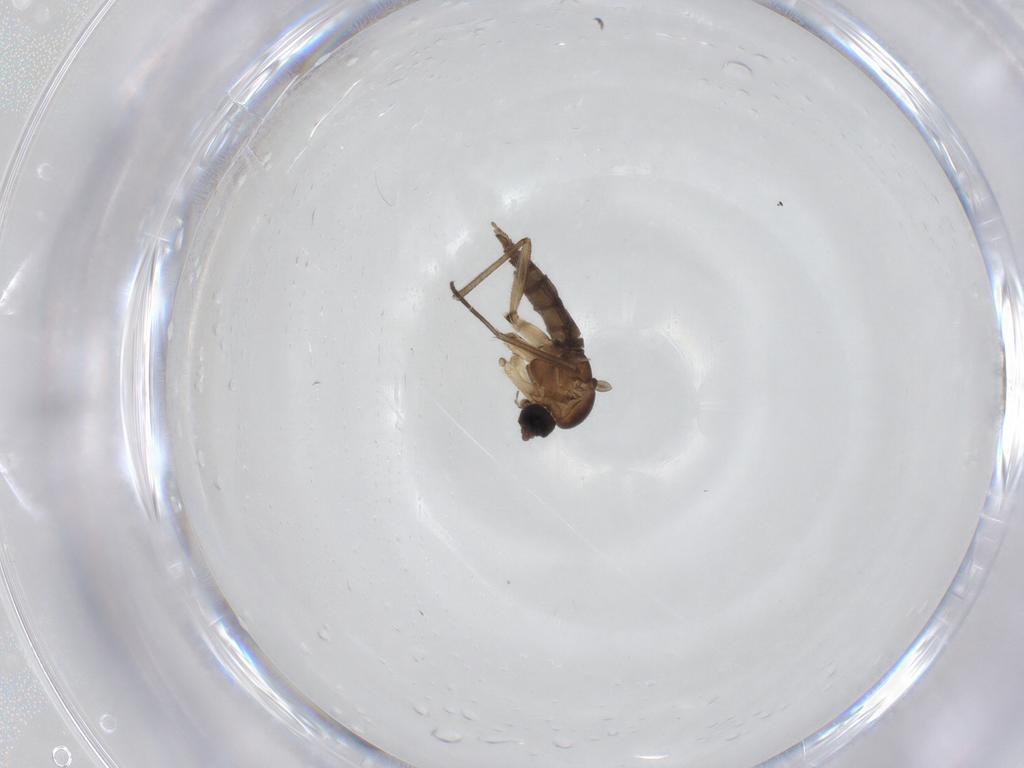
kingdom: Animalia
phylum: Arthropoda
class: Insecta
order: Diptera
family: Sciaridae
